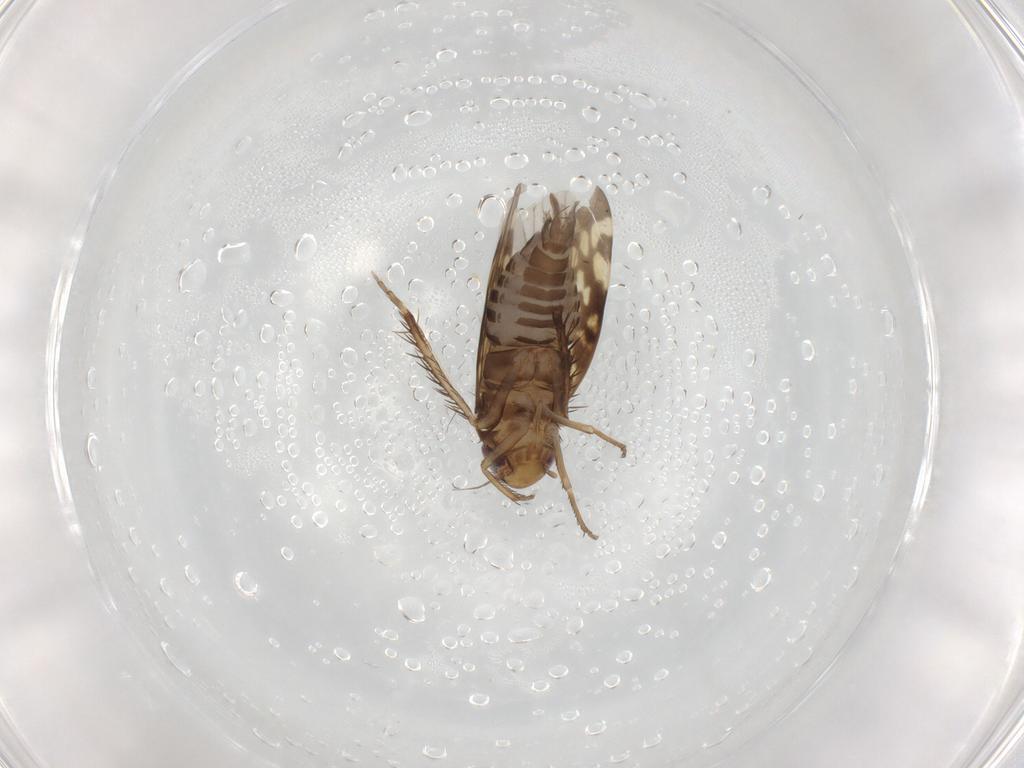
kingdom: Animalia
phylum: Arthropoda
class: Insecta
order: Hemiptera
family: Cicadellidae
